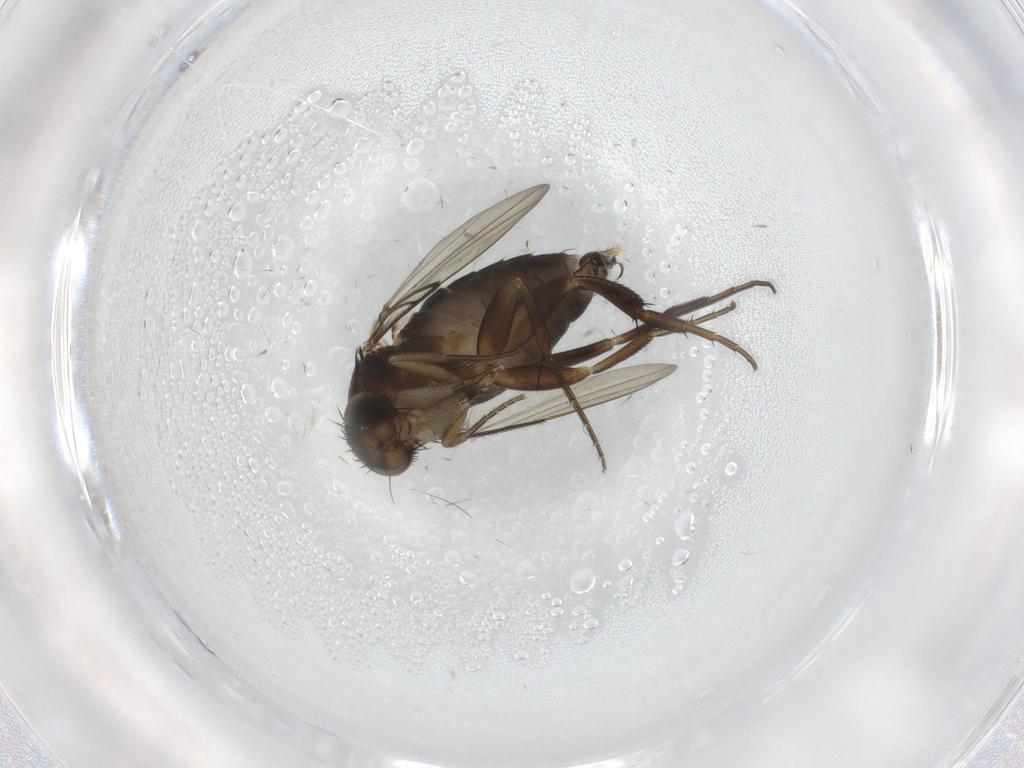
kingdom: Animalia
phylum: Arthropoda
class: Insecta
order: Diptera
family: Phoridae
